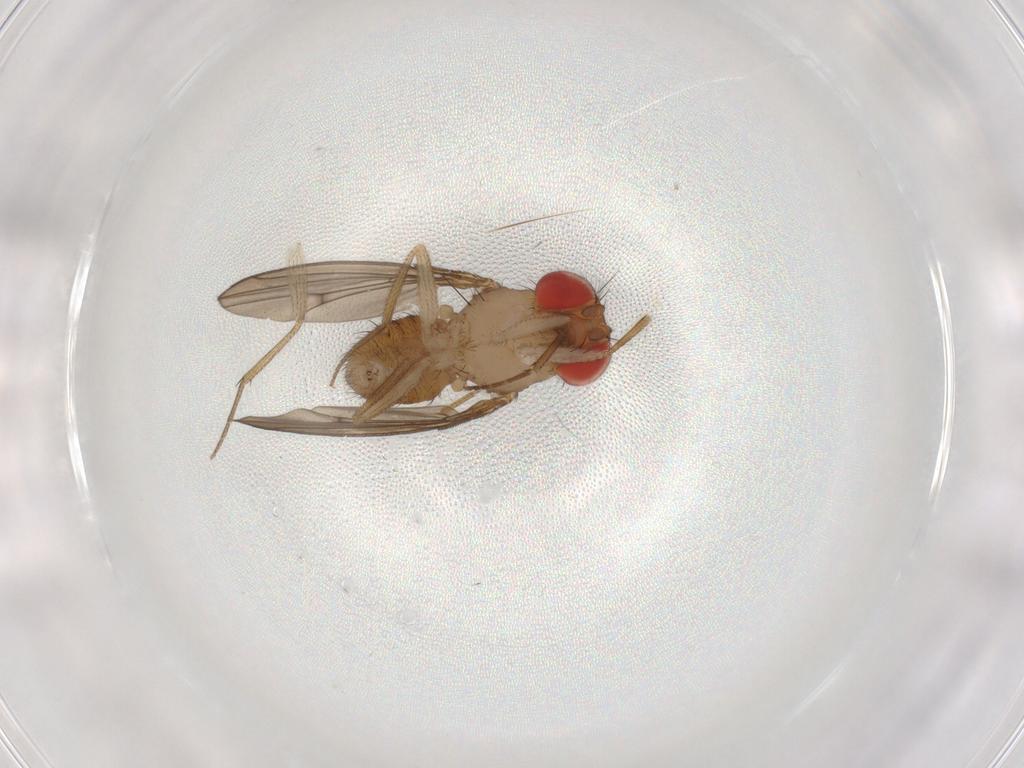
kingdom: Animalia
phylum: Arthropoda
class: Insecta
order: Diptera
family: Drosophilidae
